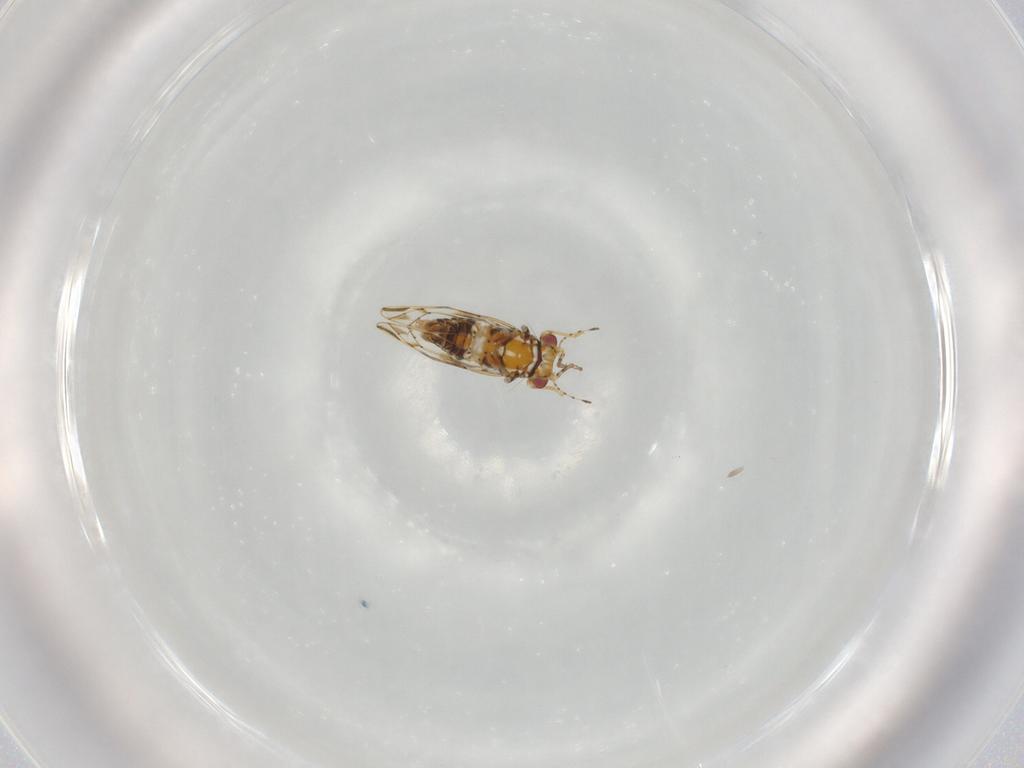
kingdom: Animalia
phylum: Arthropoda
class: Insecta
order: Hemiptera
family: Psylloidea_incertae_sedis
